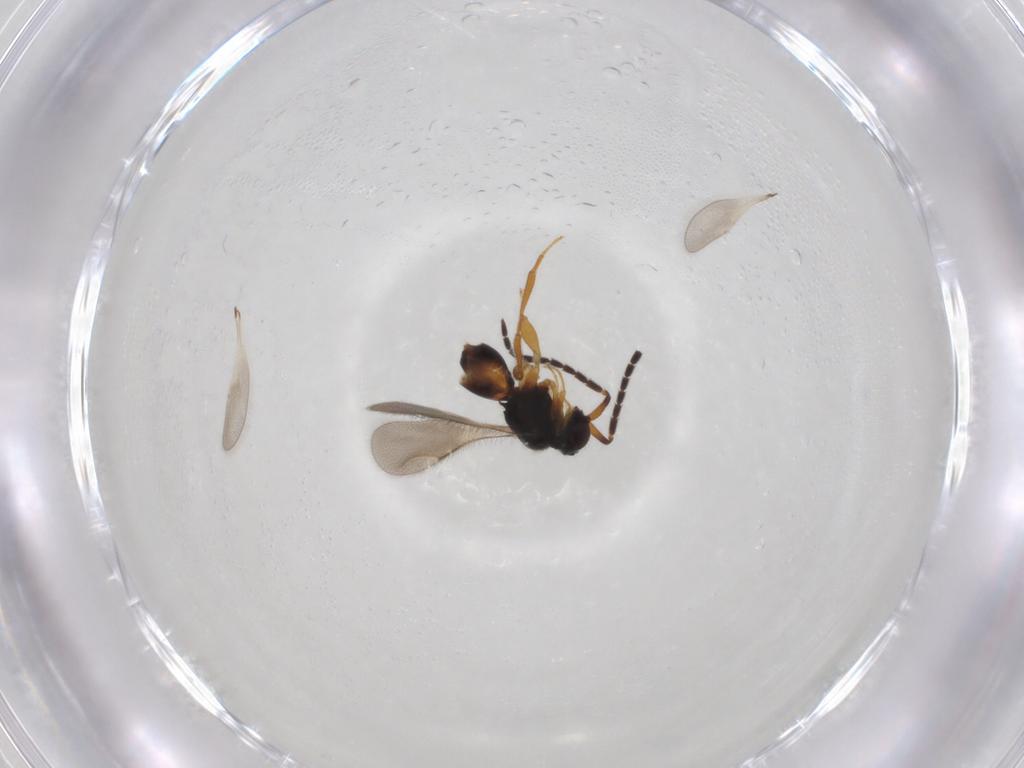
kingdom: Animalia
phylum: Arthropoda
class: Insecta
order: Hymenoptera
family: Ceraphronidae
